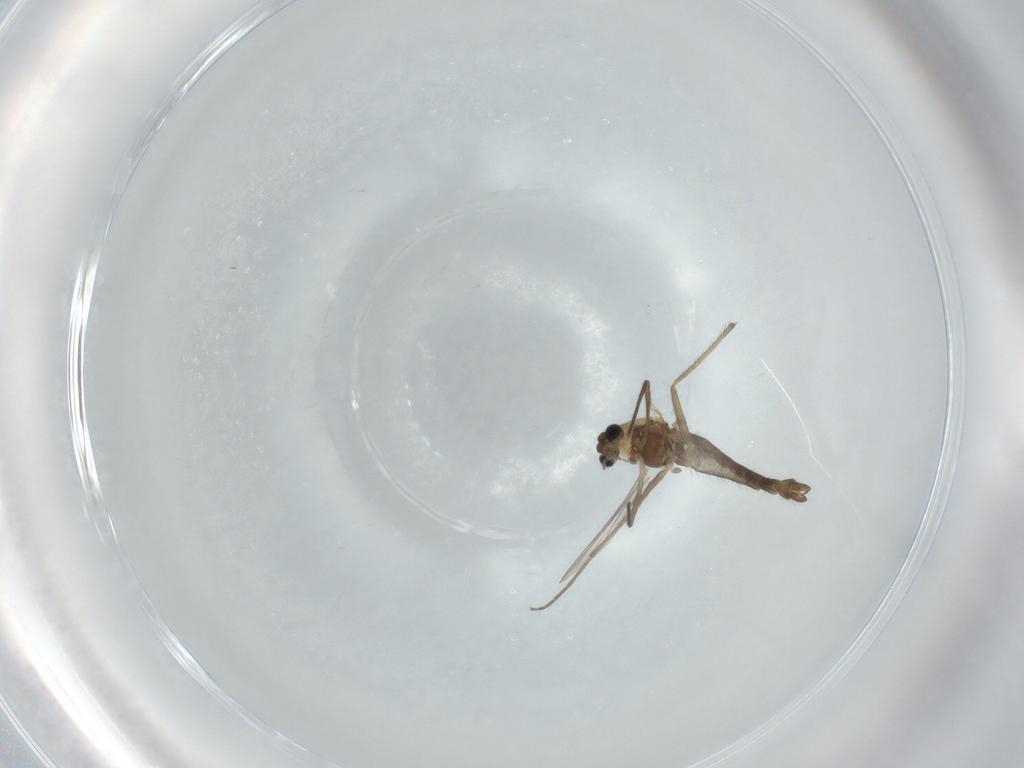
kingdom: Animalia
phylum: Arthropoda
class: Insecta
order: Diptera
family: Chironomidae
